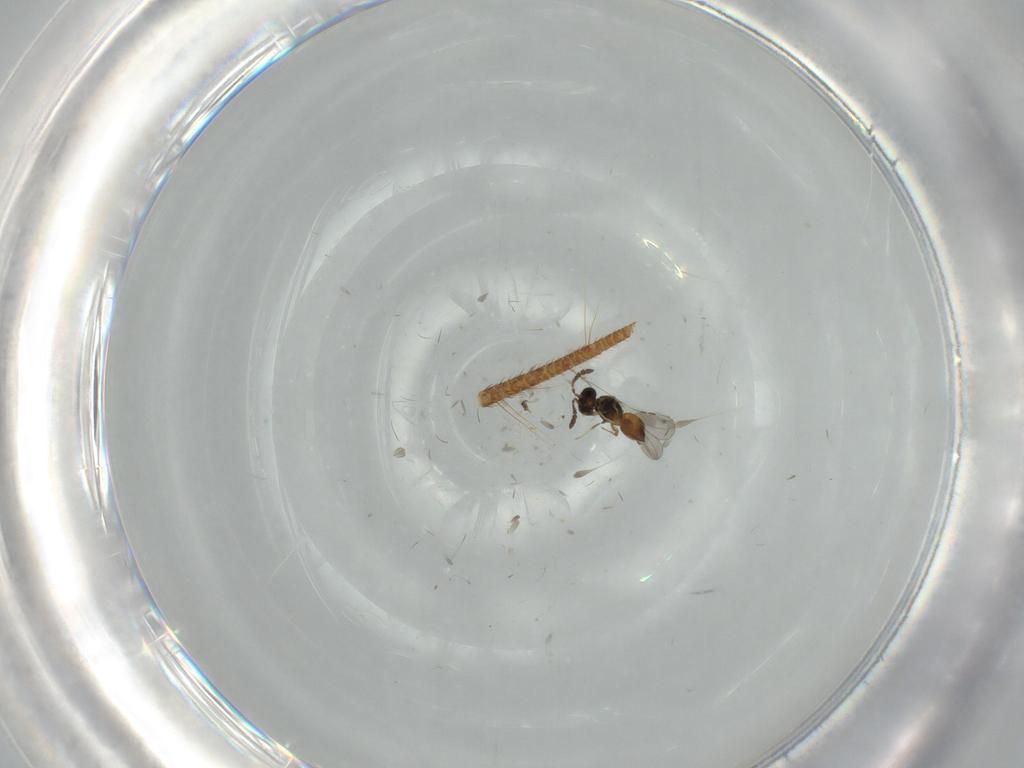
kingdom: Animalia
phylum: Arthropoda
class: Insecta
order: Hymenoptera
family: Ceraphronidae
